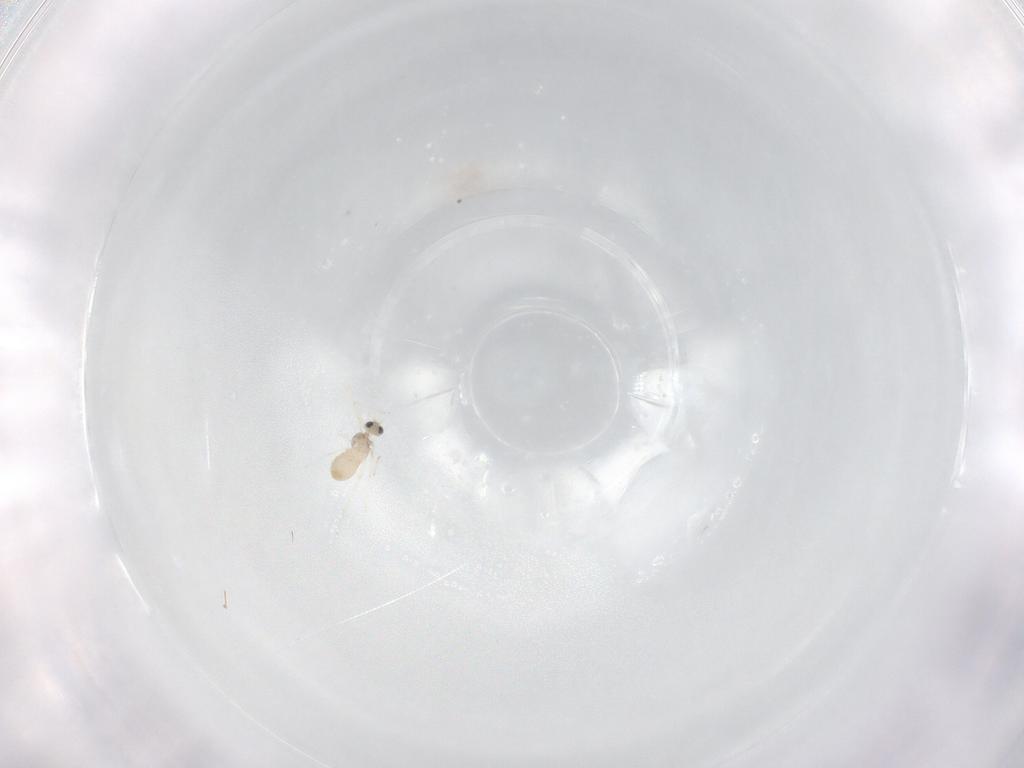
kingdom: Animalia
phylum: Arthropoda
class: Insecta
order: Diptera
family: Cecidomyiidae
